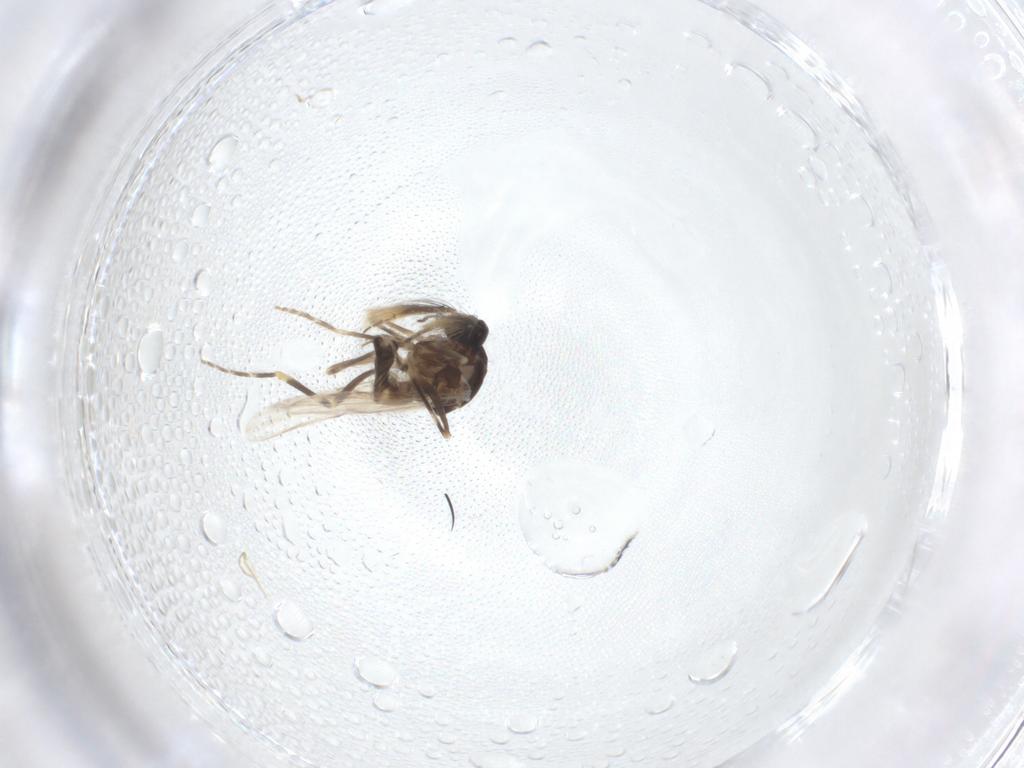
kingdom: Animalia
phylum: Arthropoda
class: Insecta
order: Diptera
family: Ceratopogonidae
